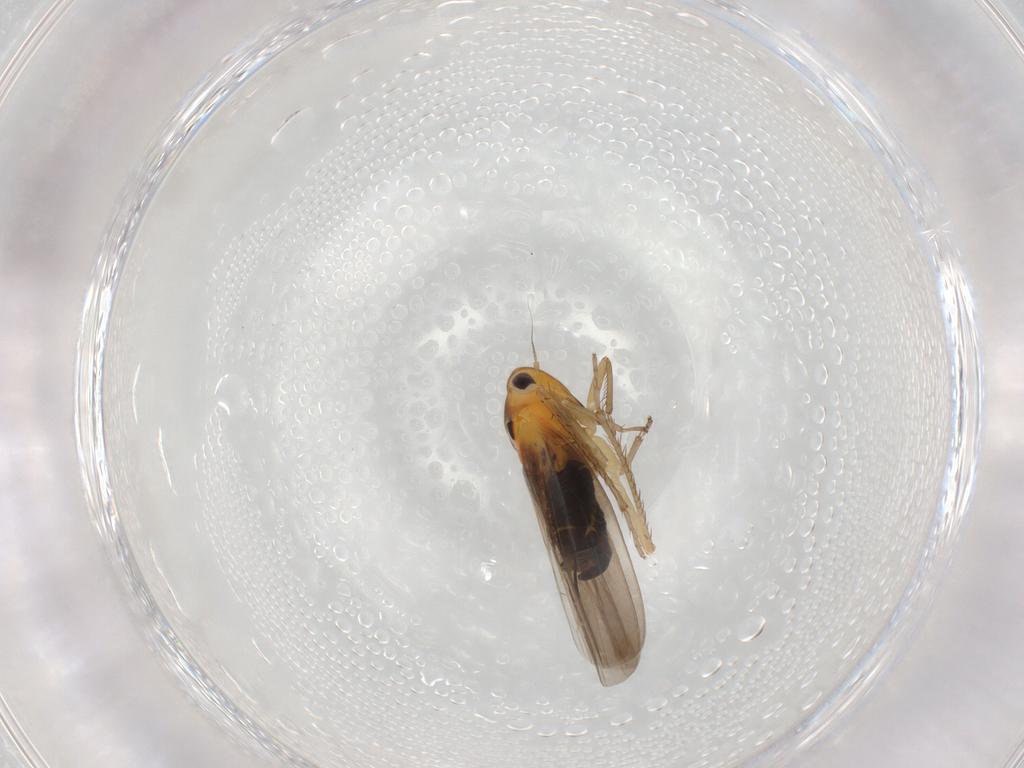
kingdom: Animalia
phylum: Arthropoda
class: Insecta
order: Hemiptera
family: Cicadellidae
